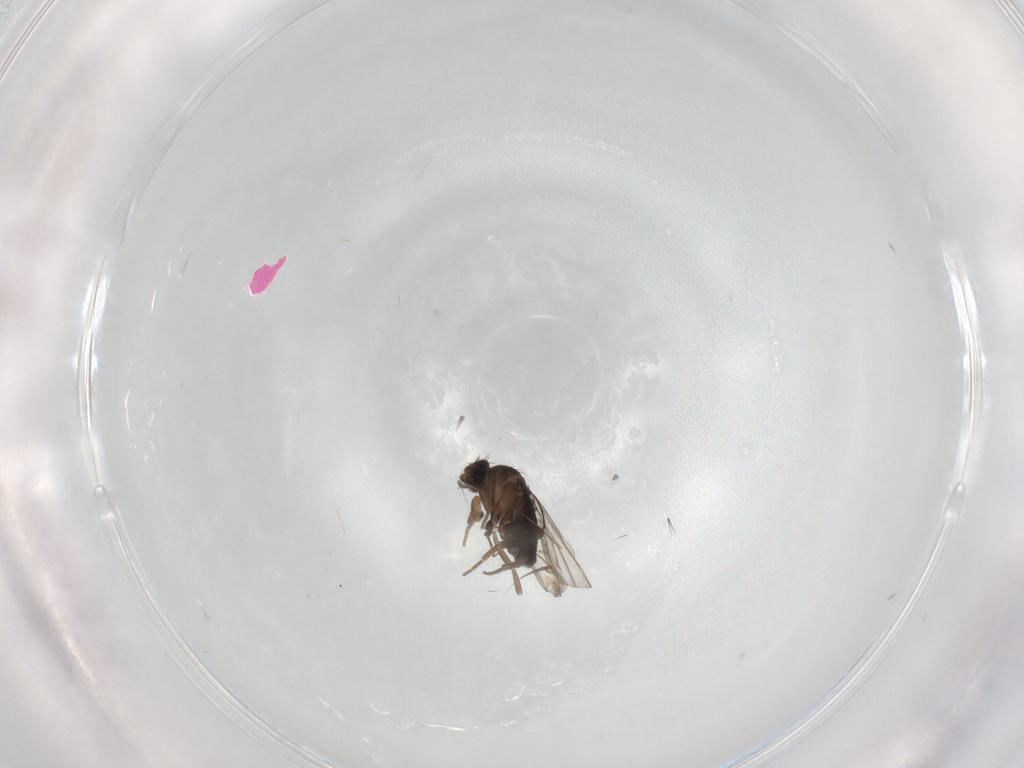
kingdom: Animalia
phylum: Arthropoda
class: Insecta
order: Diptera
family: Phoridae
